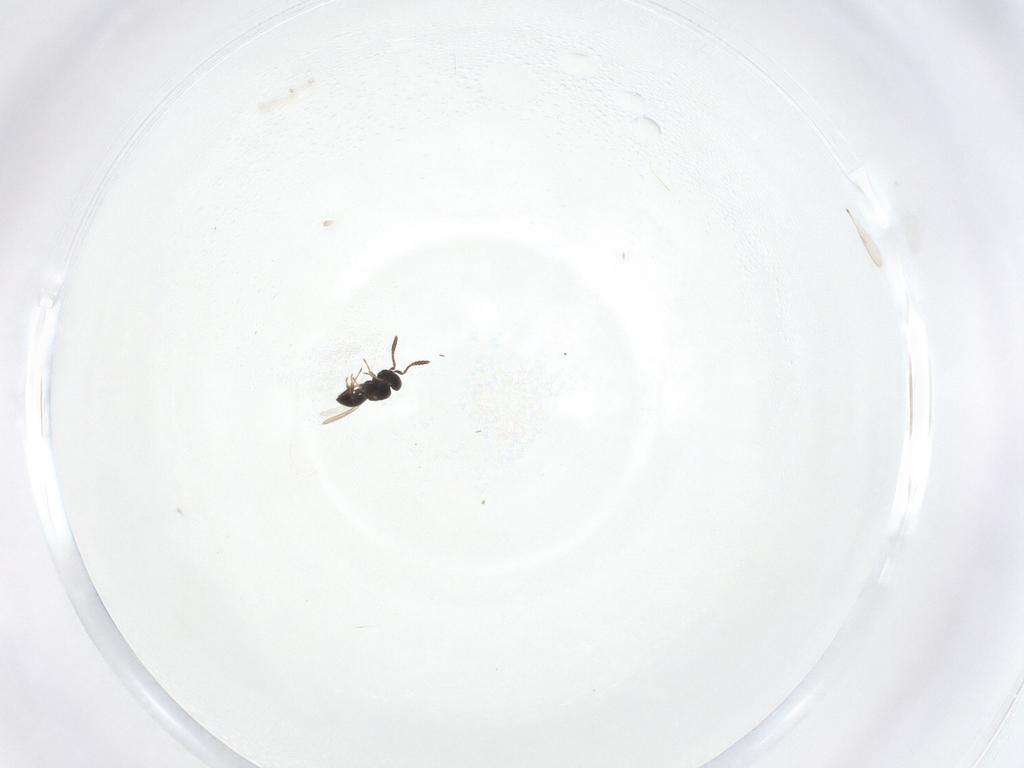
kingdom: Animalia
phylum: Arthropoda
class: Insecta
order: Hymenoptera
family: Scelionidae
